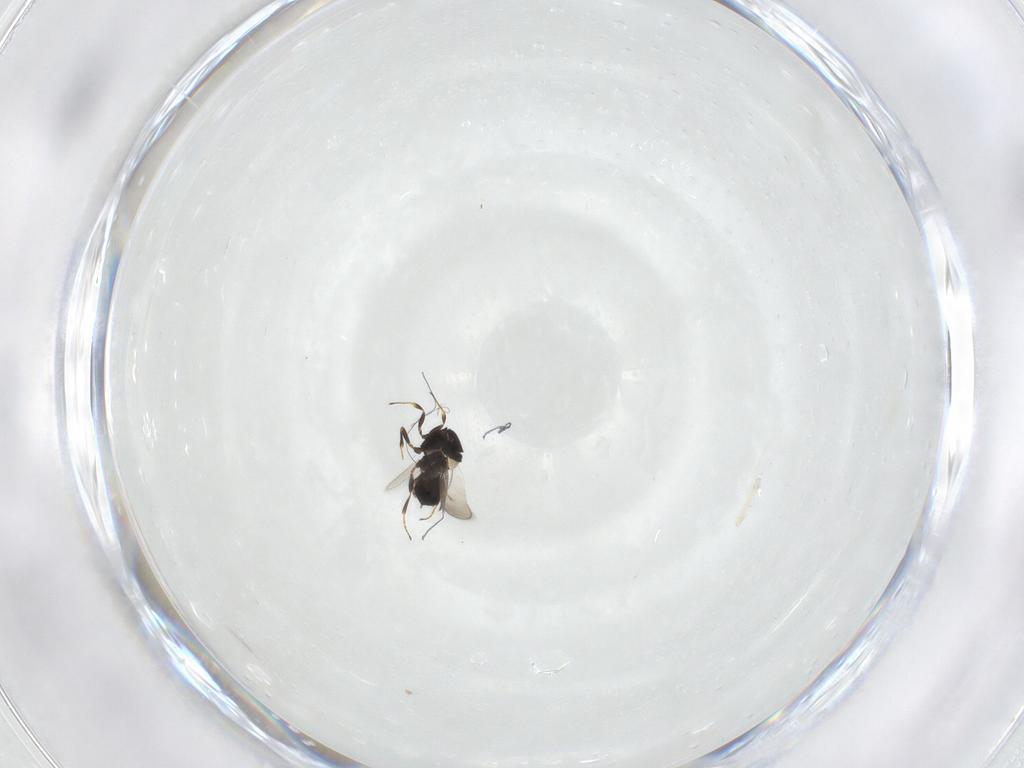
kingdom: Animalia
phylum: Arthropoda
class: Insecta
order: Hymenoptera
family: Scelionidae
